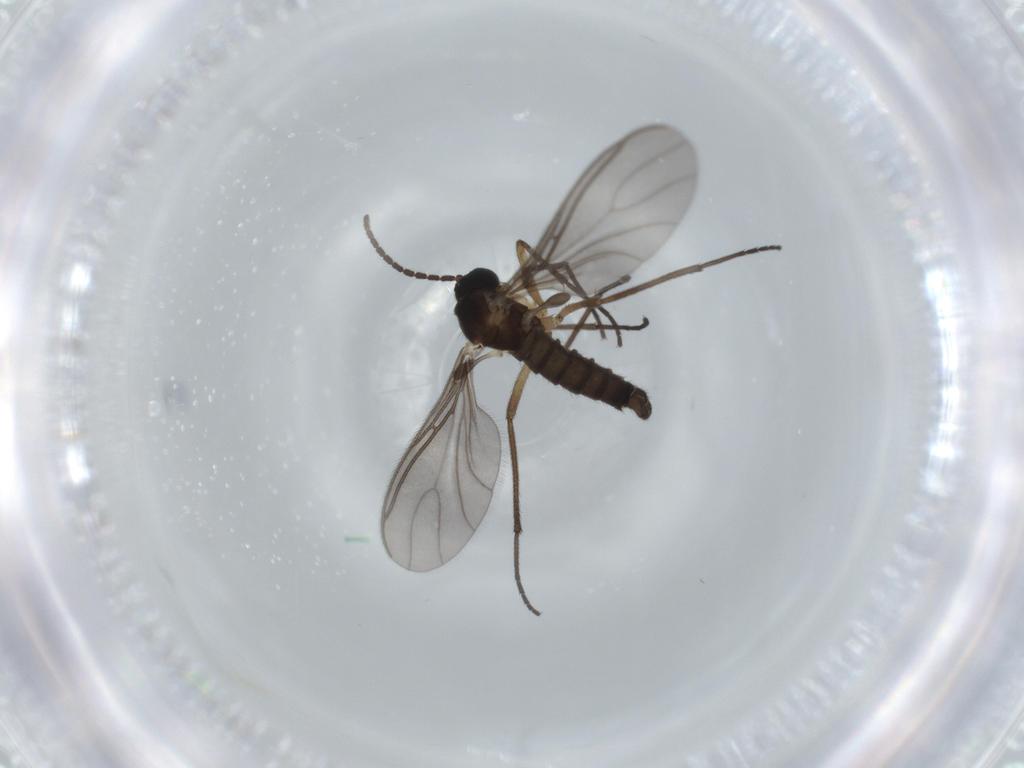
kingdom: Animalia
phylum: Arthropoda
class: Insecta
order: Diptera
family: Sciaridae
